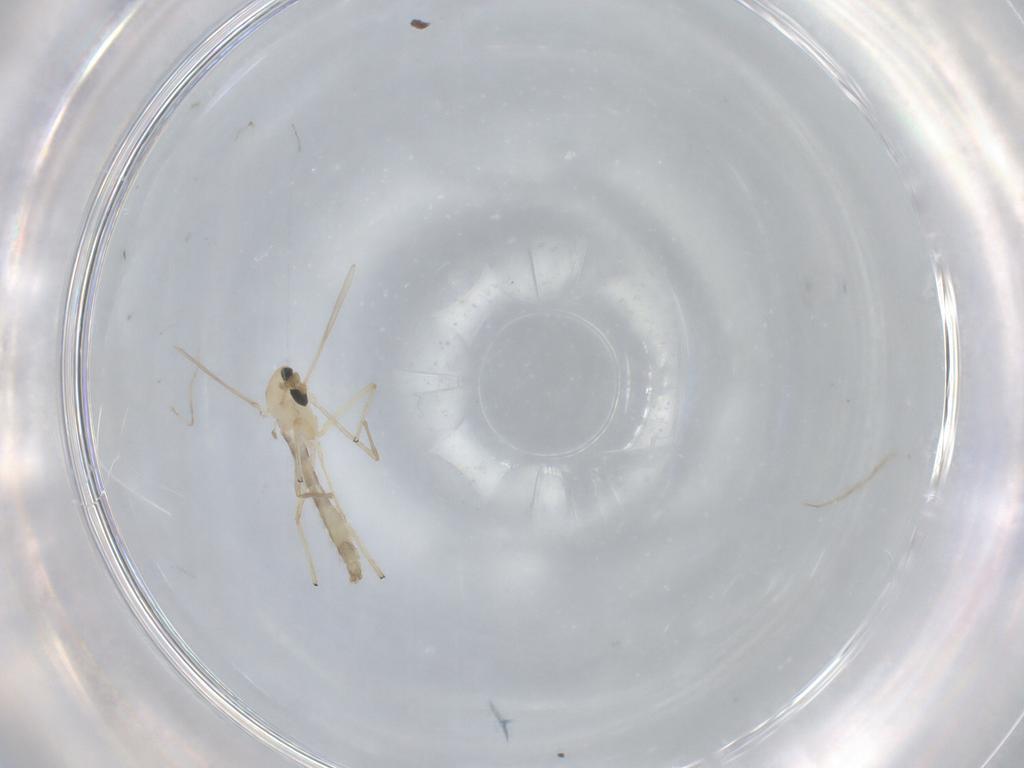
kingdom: Animalia
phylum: Arthropoda
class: Insecta
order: Diptera
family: Chironomidae
